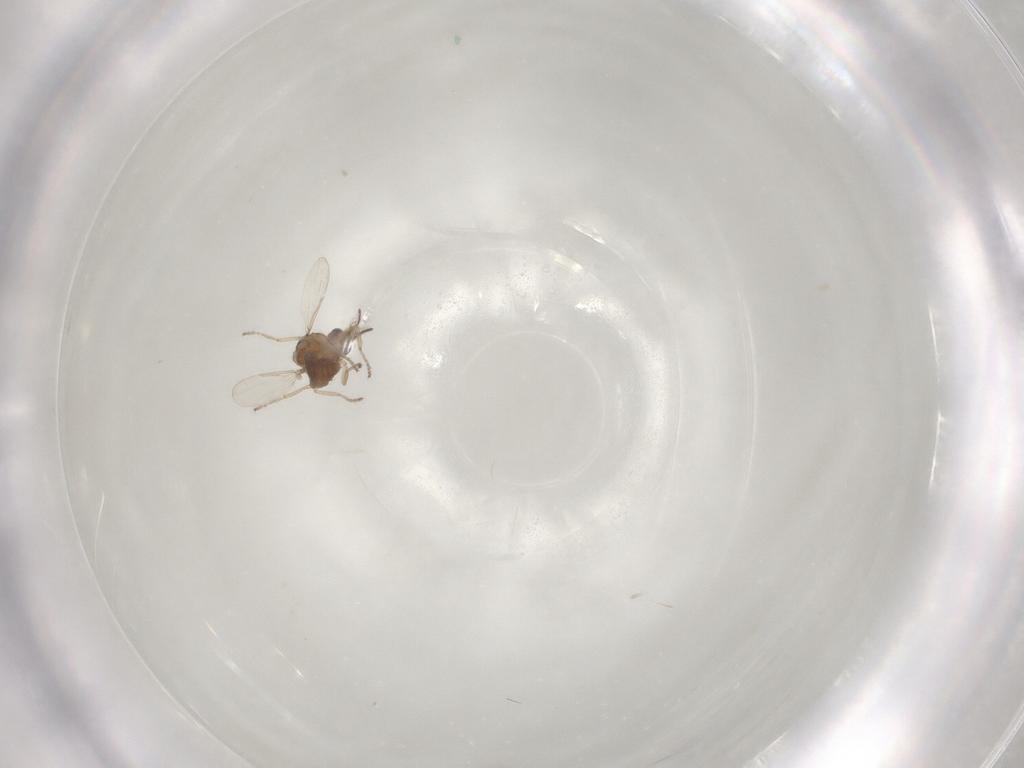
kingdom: Animalia
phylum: Arthropoda
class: Insecta
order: Diptera
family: Ceratopogonidae
